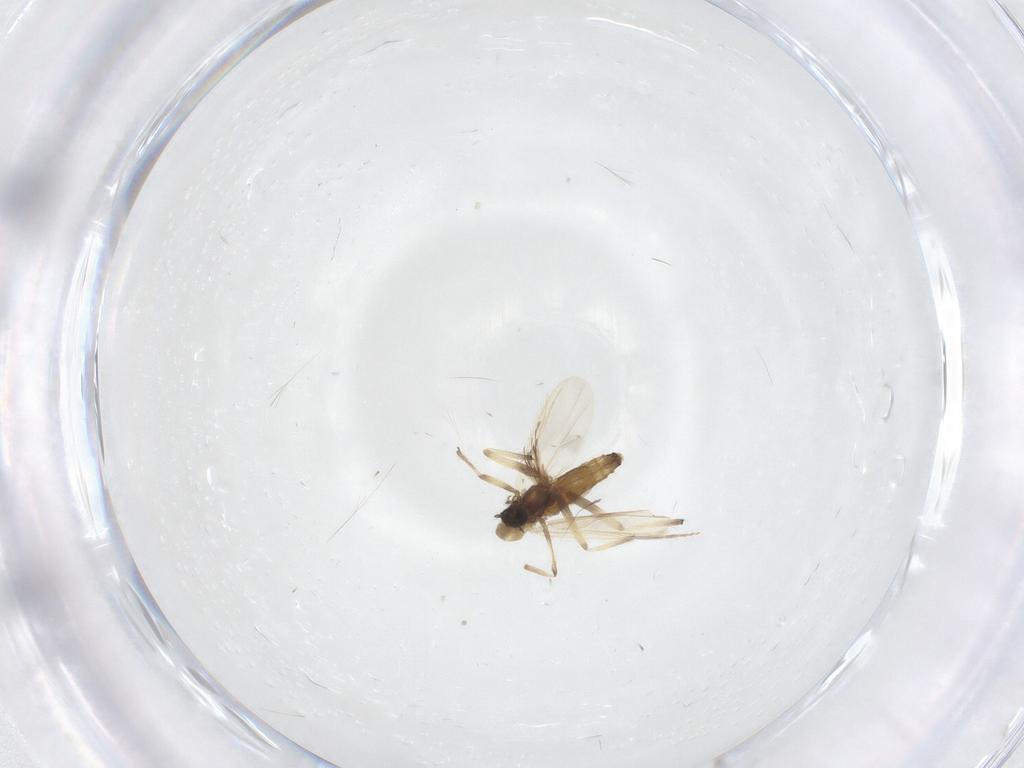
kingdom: Animalia
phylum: Arthropoda
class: Insecta
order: Diptera
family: Chironomidae
